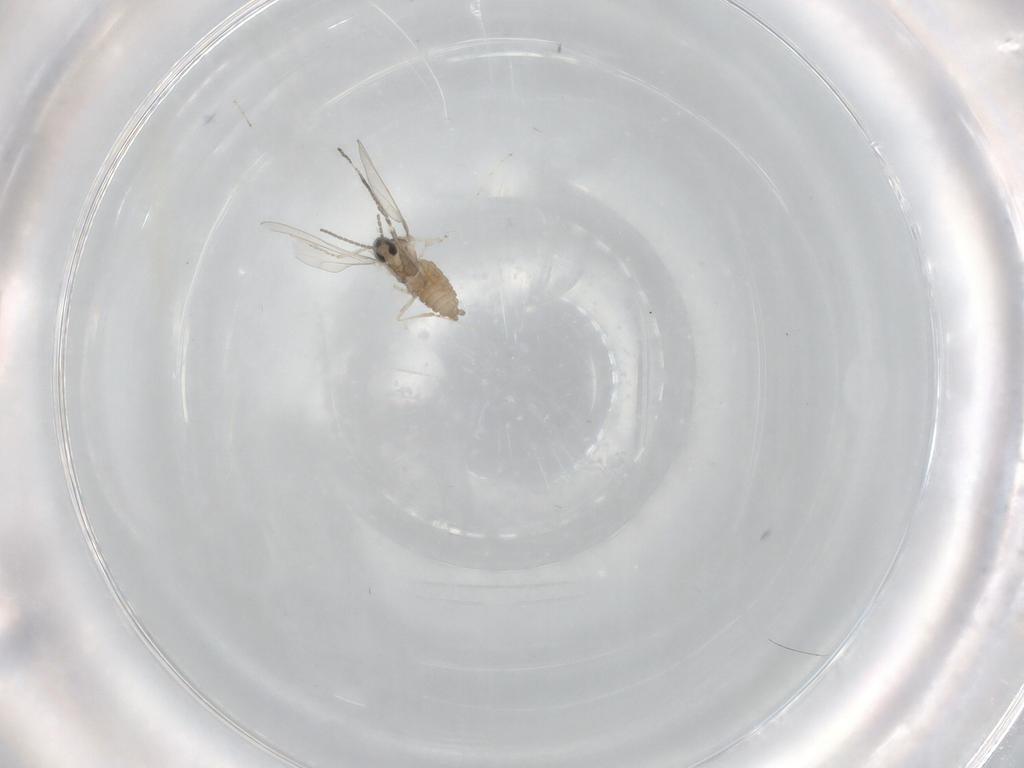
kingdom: Animalia
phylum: Arthropoda
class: Insecta
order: Diptera
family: Cecidomyiidae
